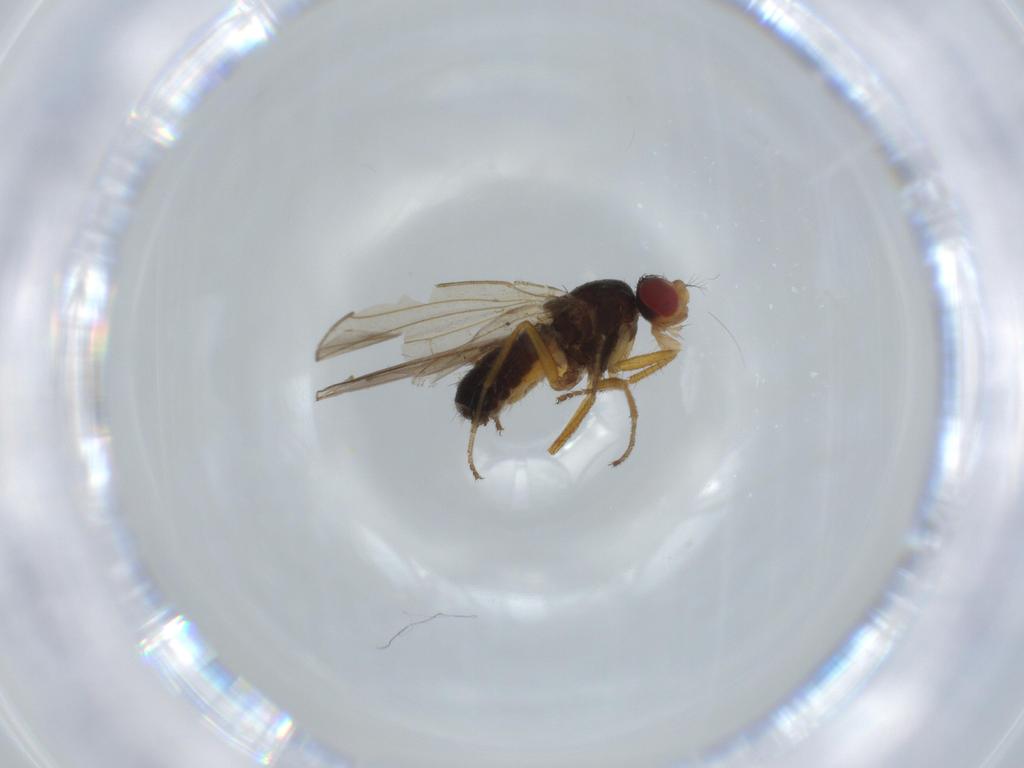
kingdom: Animalia
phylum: Arthropoda
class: Insecta
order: Diptera
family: Drosophilidae
